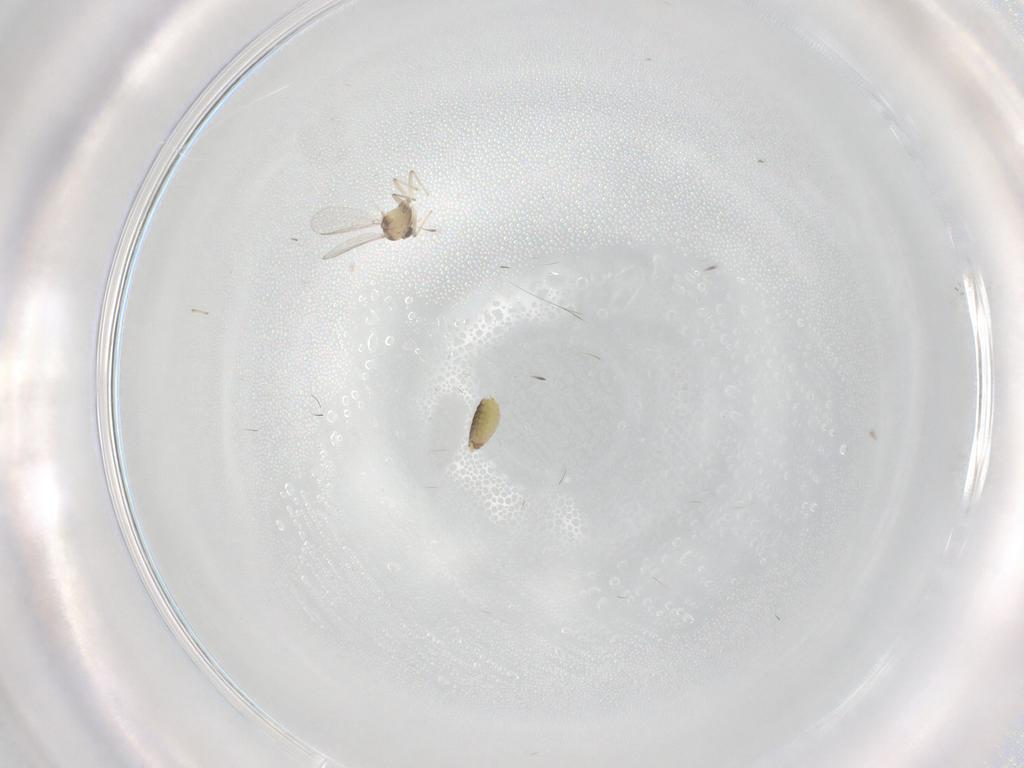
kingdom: Animalia
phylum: Arthropoda
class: Insecta
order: Diptera
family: Chironomidae
